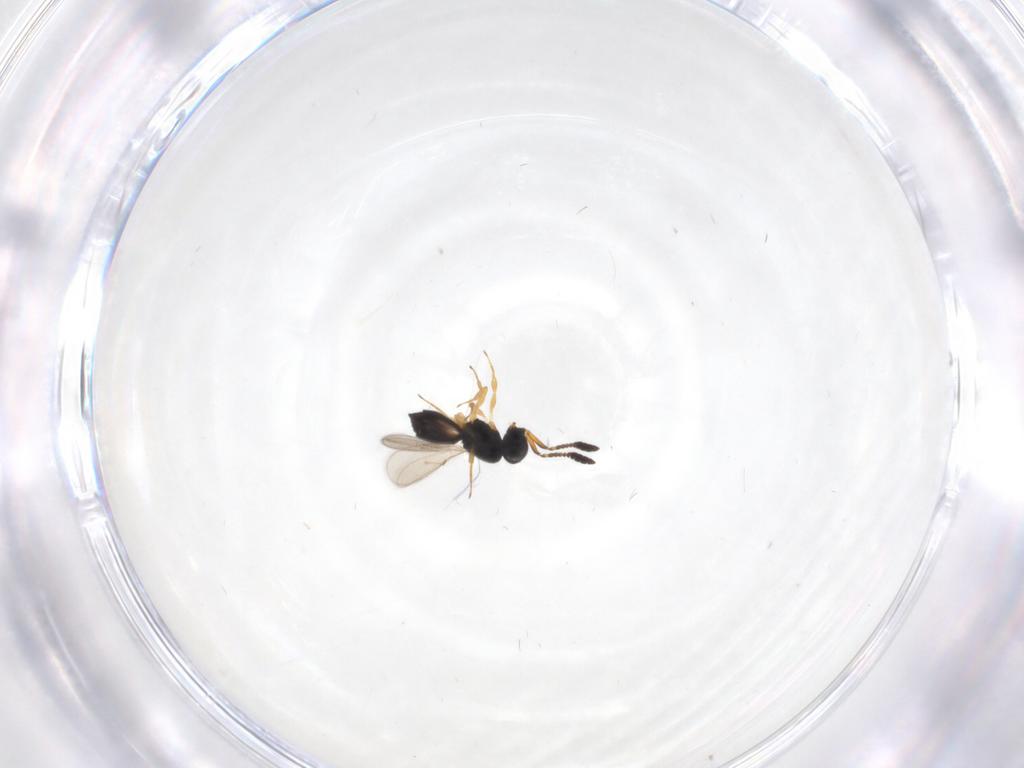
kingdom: Animalia
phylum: Arthropoda
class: Insecta
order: Hymenoptera
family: Scelionidae
